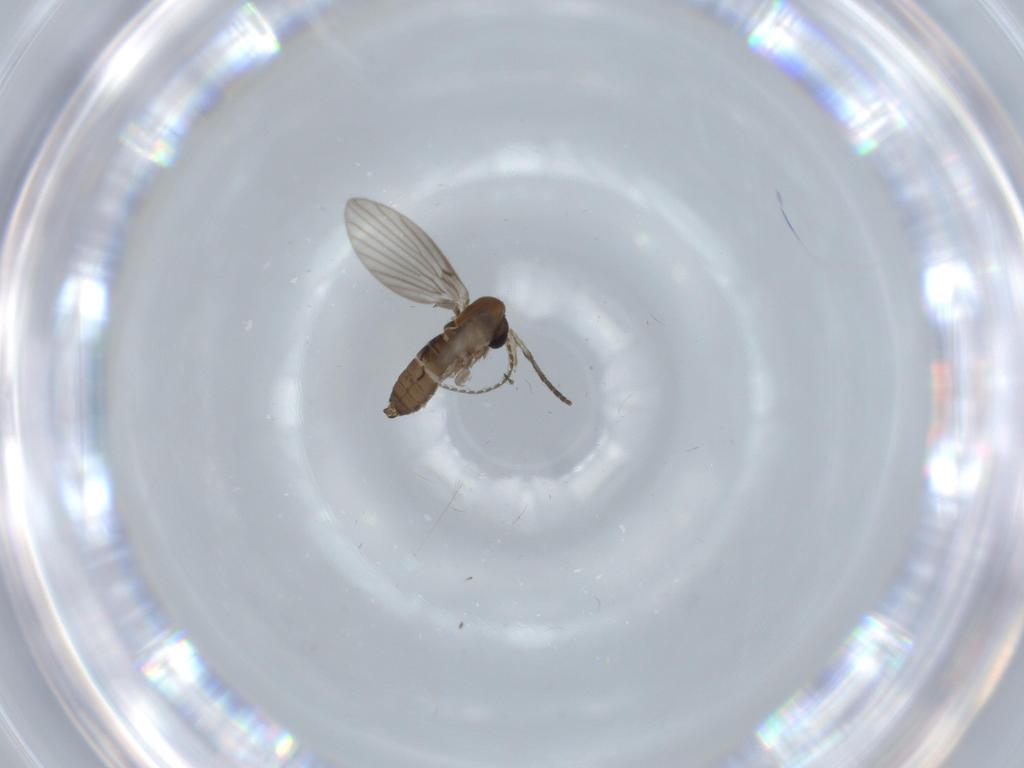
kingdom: Animalia
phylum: Arthropoda
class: Insecta
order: Diptera
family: Psychodidae
